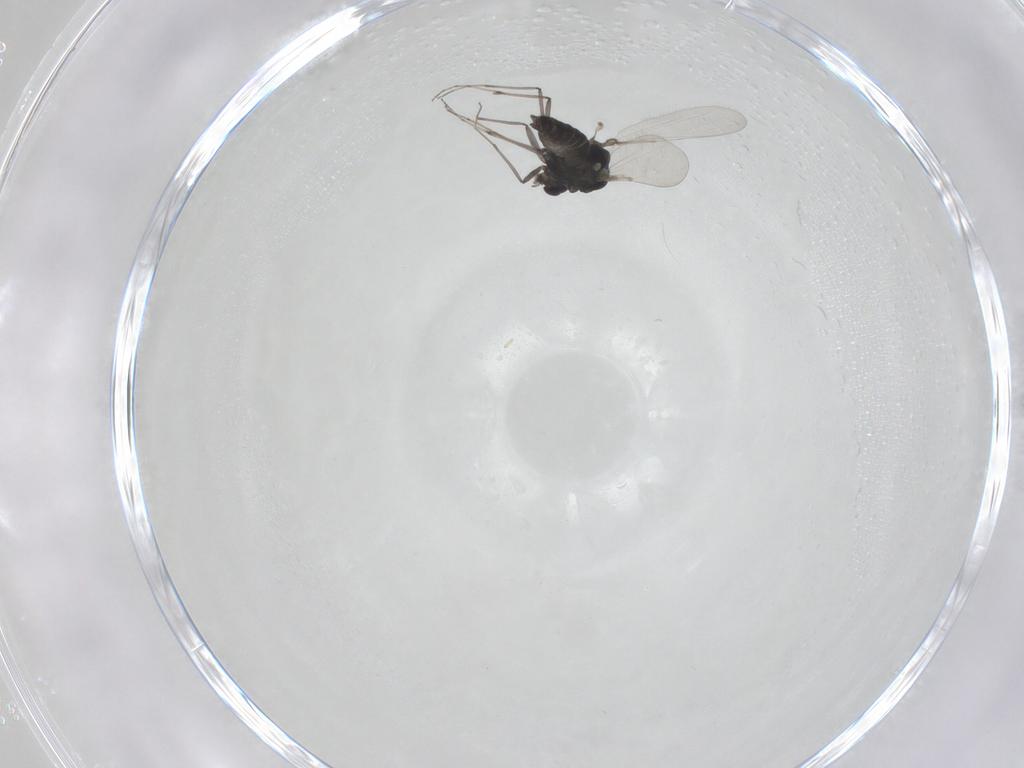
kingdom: Animalia
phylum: Arthropoda
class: Insecta
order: Diptera
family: Chironomidae
